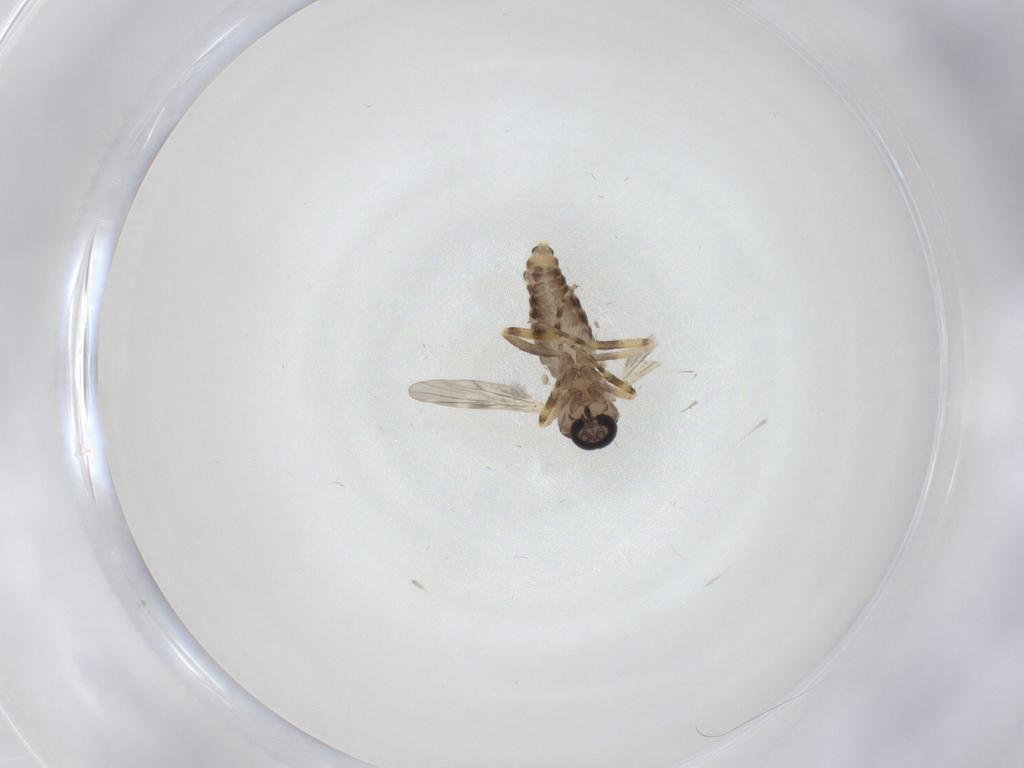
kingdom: Animalia
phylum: Arthropoda
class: Insecta
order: Diptera
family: Ceratopogonidae
